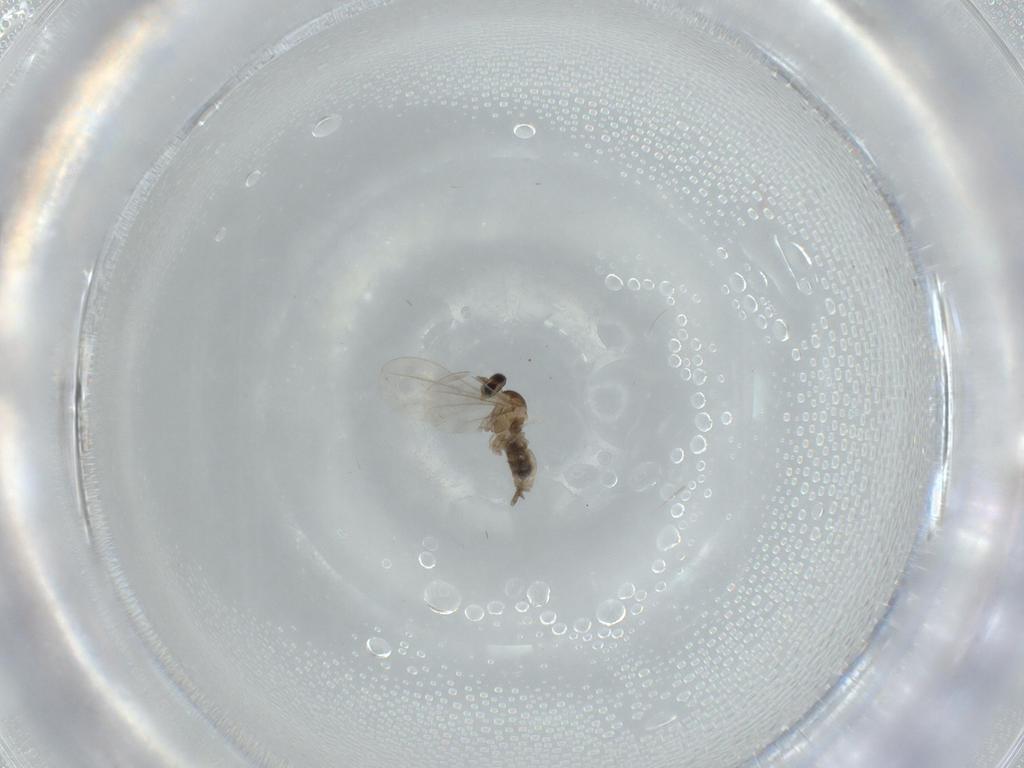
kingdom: Animalia
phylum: Arthropoda
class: Insecta
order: Diptera
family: Cecidomyiidae
